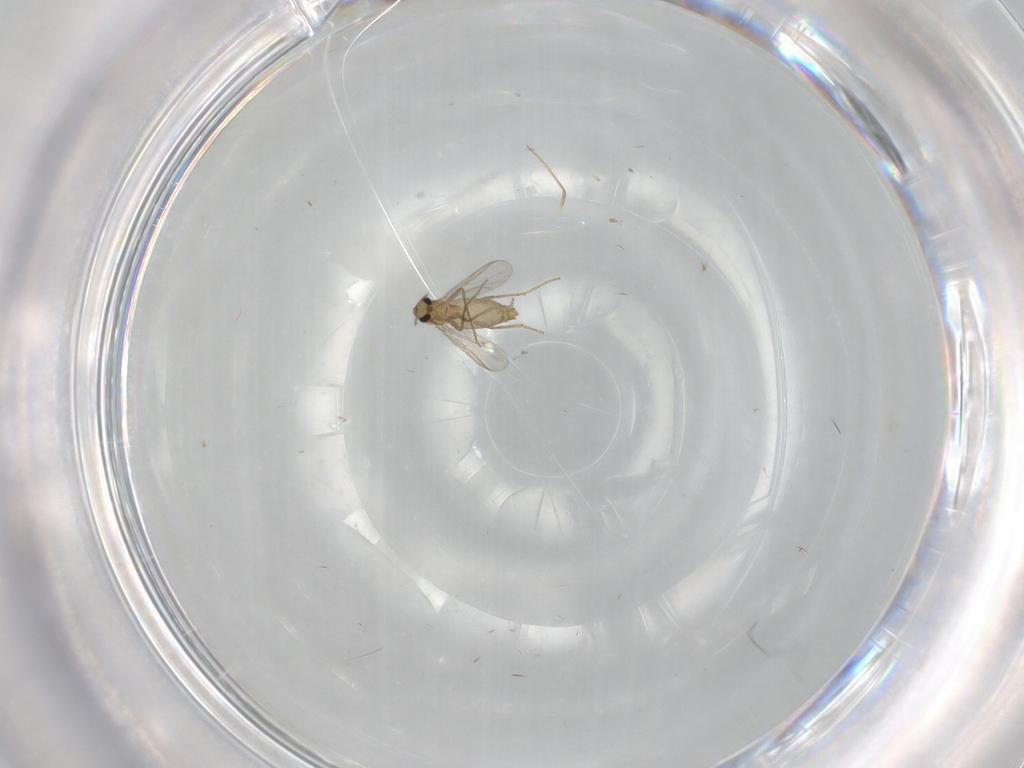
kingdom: Animalia
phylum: Arthropoda
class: Insecta
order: Diptera
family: Chironomidae
